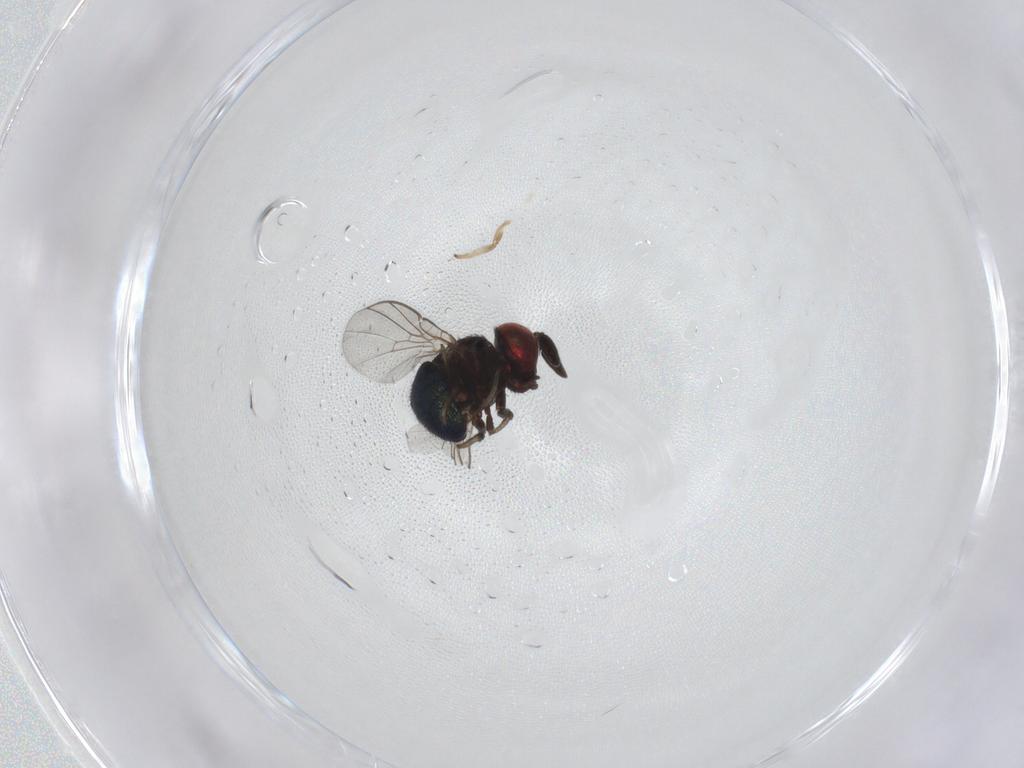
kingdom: Animalia
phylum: Arthropoda
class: Insecta
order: Diptera
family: Cryptochetidae
